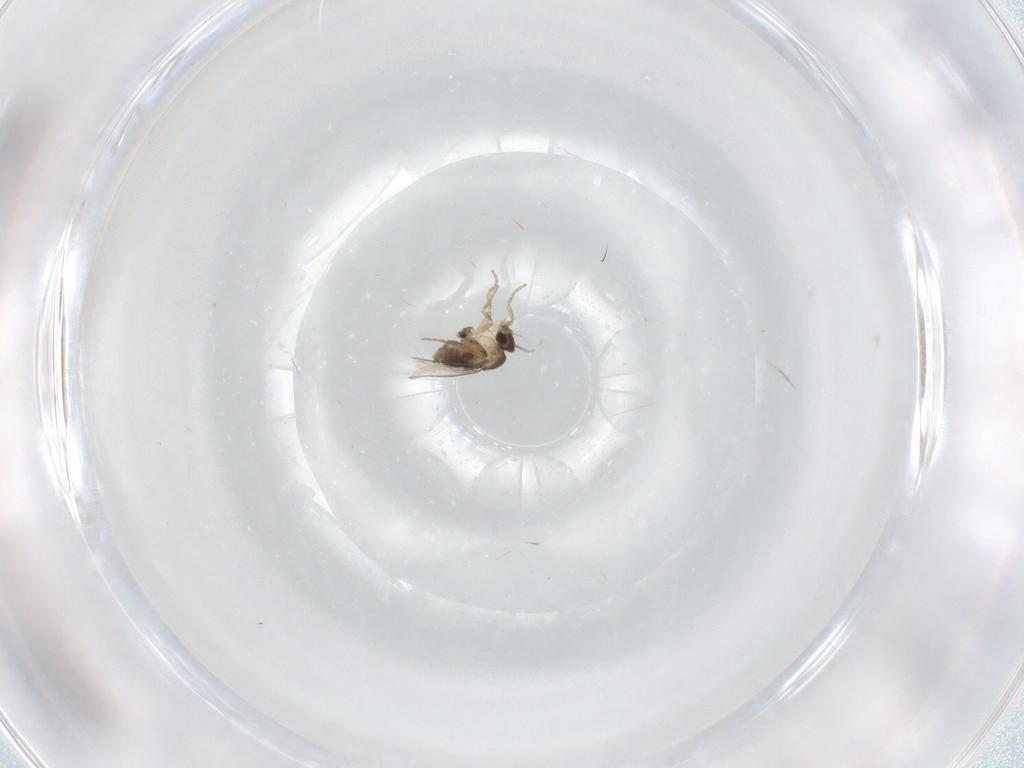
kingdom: Animalia
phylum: Arthropoda
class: Insecta
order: Diptera
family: Phoridae
